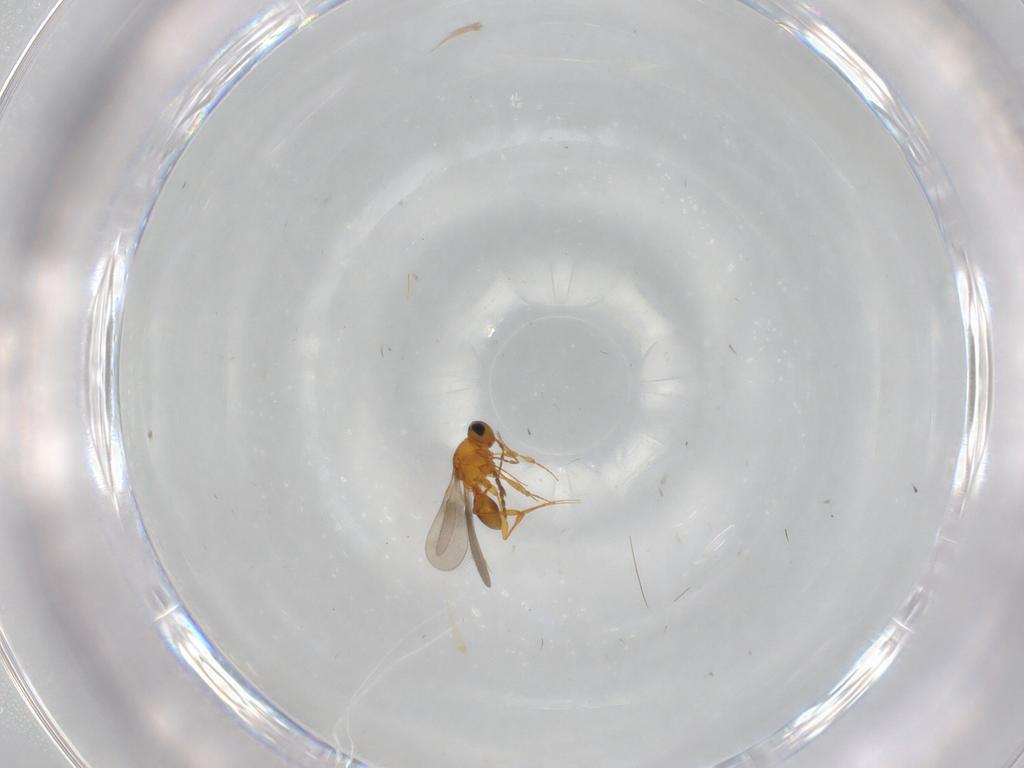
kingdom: Animalia
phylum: Arthropoda
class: Insecta
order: Hymenoptera
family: Platygastridae
